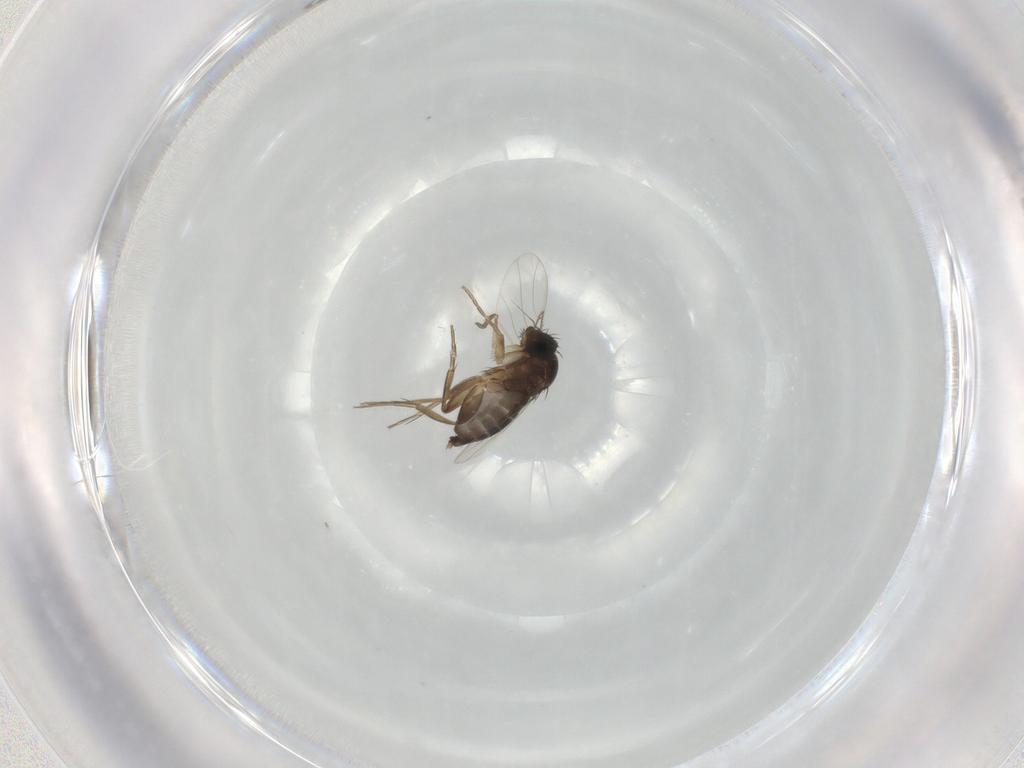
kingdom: Animalia
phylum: Arthropoda
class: Insecta
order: Diptera
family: Phoridae
